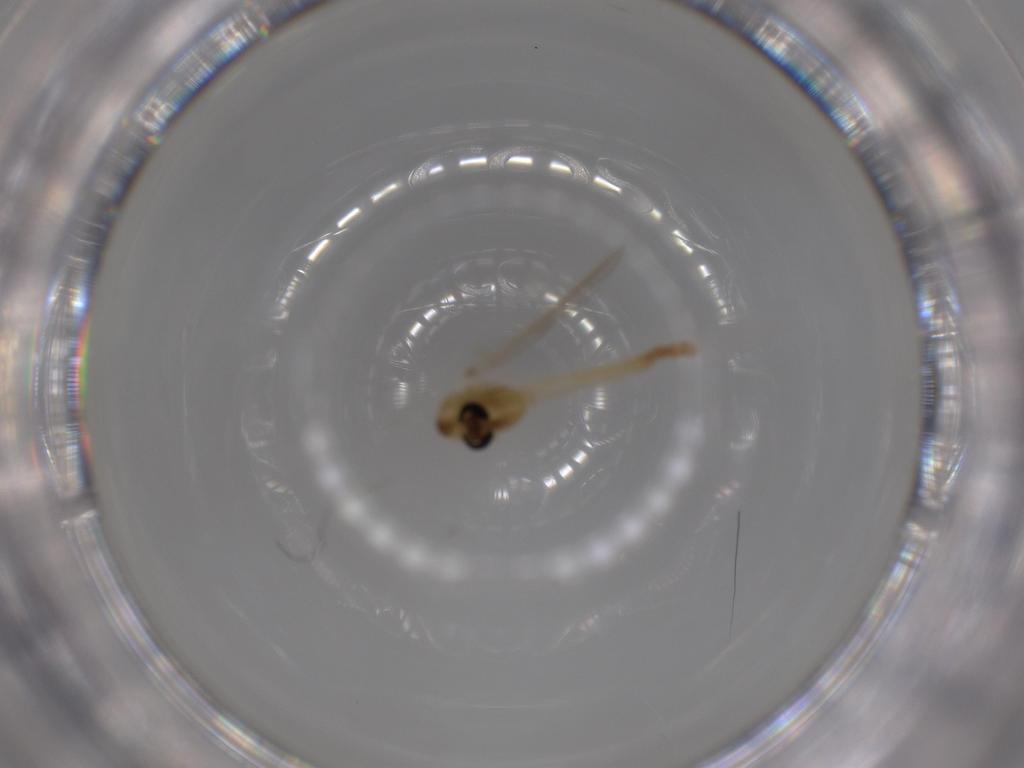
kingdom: Animalia
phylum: Arthropoda
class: Insecta
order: Diptera
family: Chironomidae
